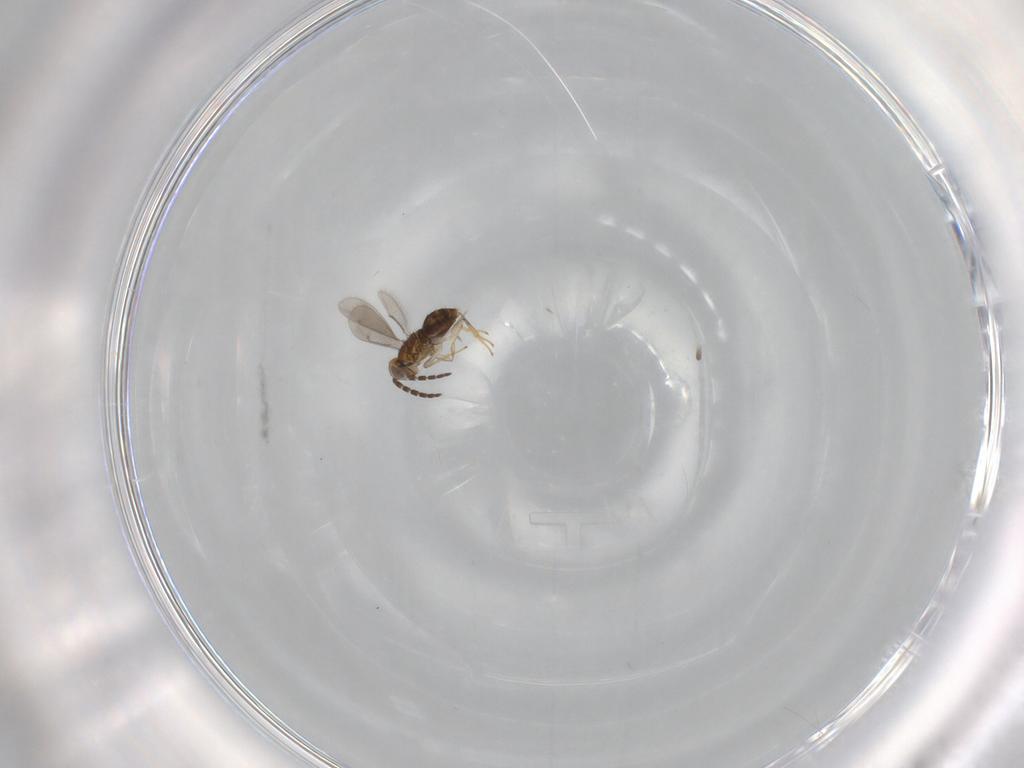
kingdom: Animalia
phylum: Arthropoda
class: Insecta
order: Hymenoptera
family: Aphelinidae
